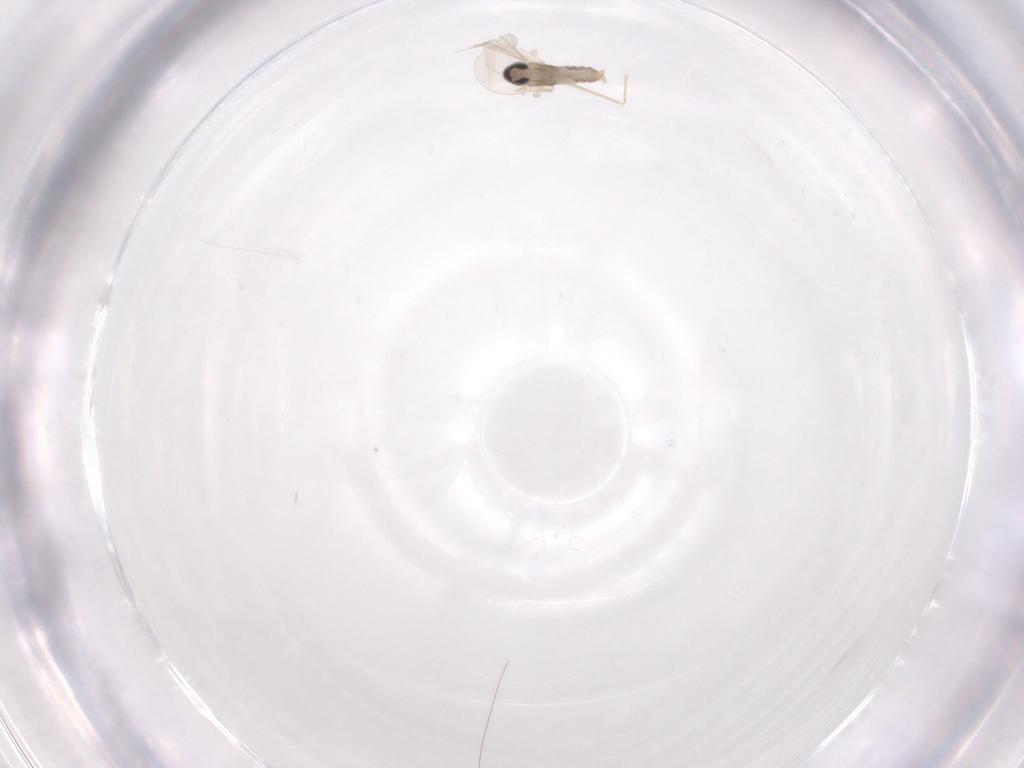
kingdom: Animalia
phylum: Arthropoda
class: Insecta
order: Diptera
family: Cecidomyiidae
